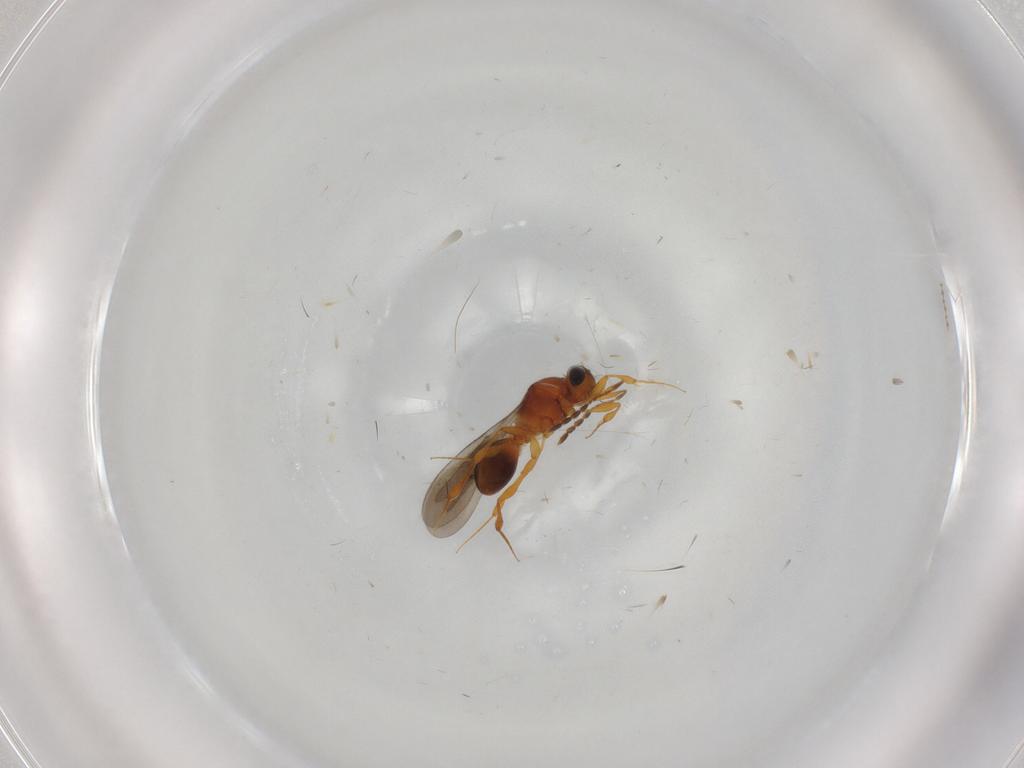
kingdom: Animalia
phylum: Arthropoda
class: Insecta
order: Hymenoptera
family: Platygastridae
